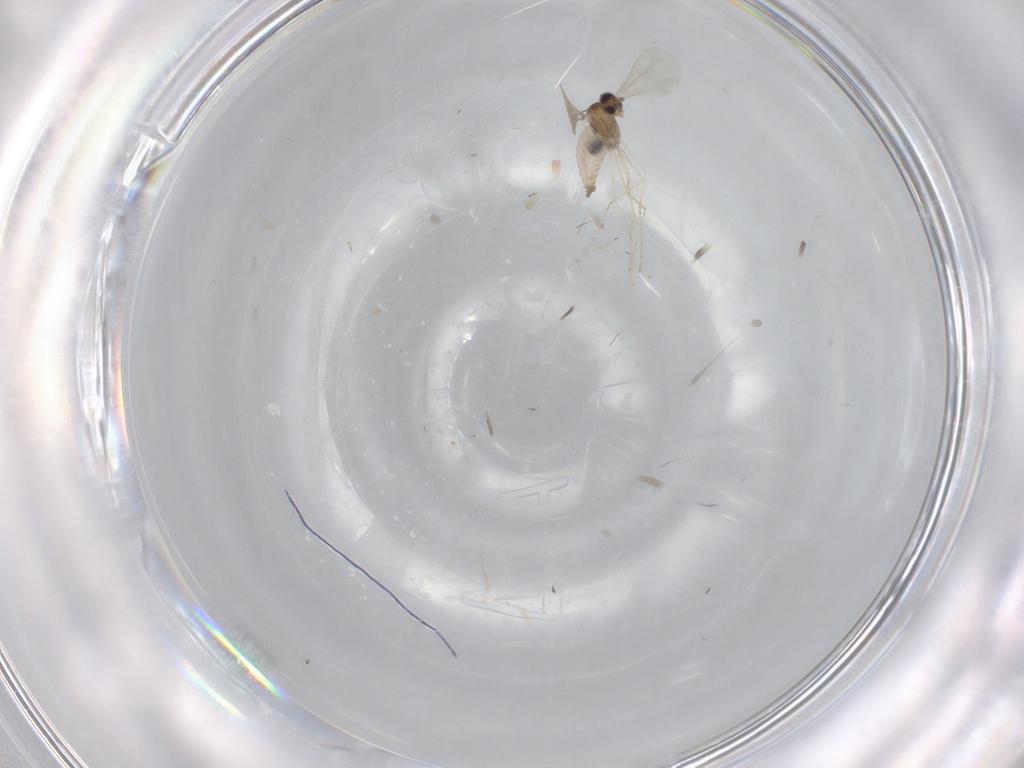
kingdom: Animalia
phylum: Arthropoda
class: Insecta
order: Diptera
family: Cecidomyiidae
